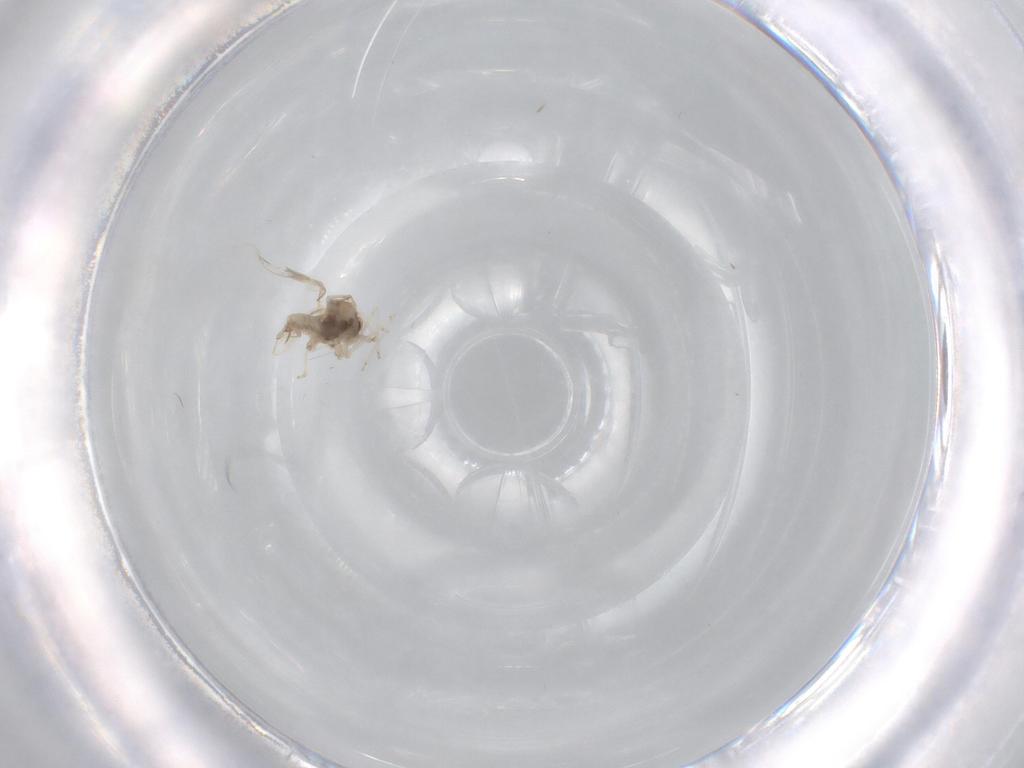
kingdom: Animalia
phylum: Arthropoda
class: Insecta
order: Diptera
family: Cecidomyiidae
